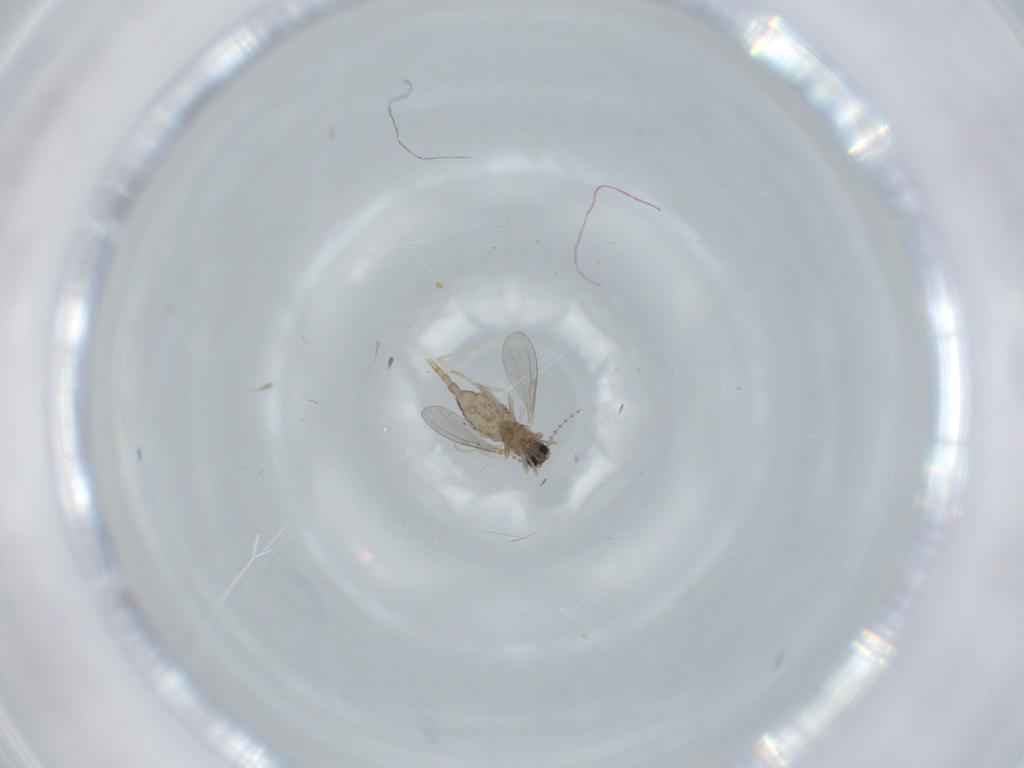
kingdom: Animalia
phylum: Arthropoda
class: Insecta
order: Diptera
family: Cecidomyiidae
